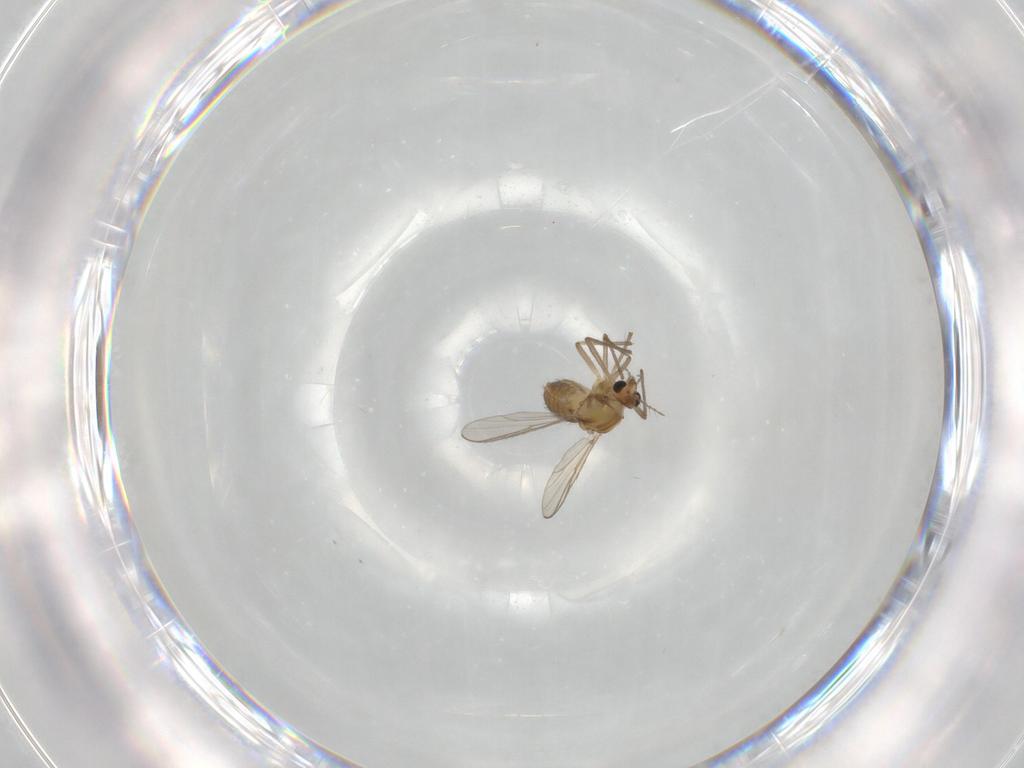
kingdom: Animalia
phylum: Arthropoda
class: Insecta
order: Diptera
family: Chironomidae
